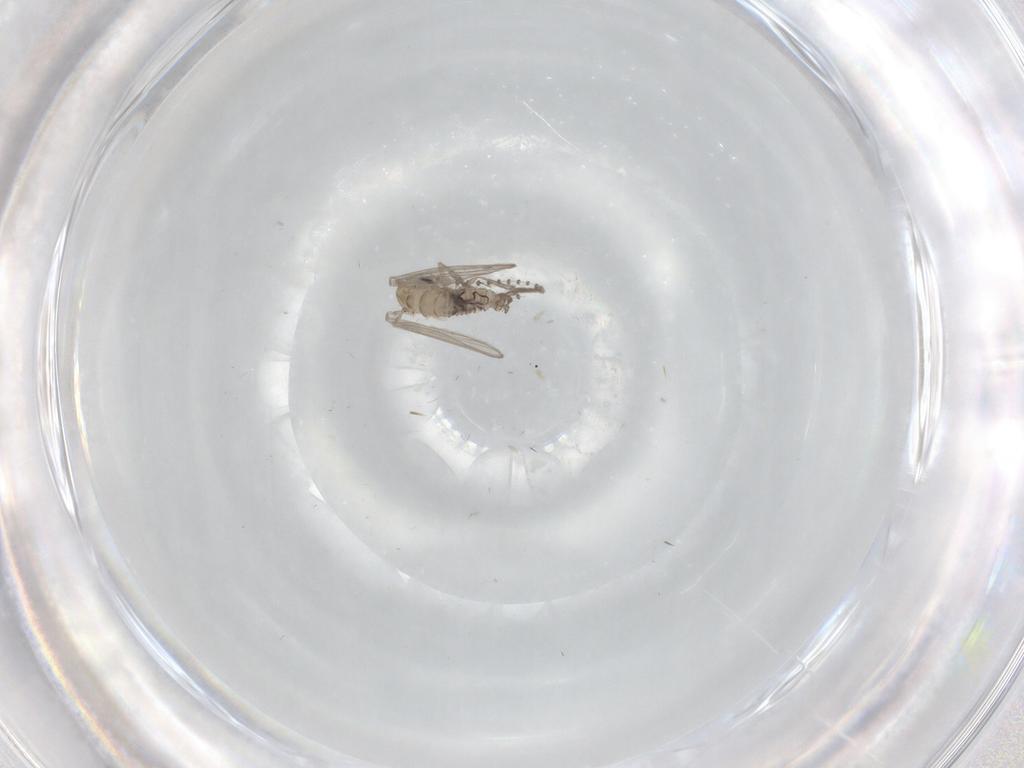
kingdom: Animalia
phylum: Arthropoda
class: Insecta
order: Diptera
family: Psychodidae
